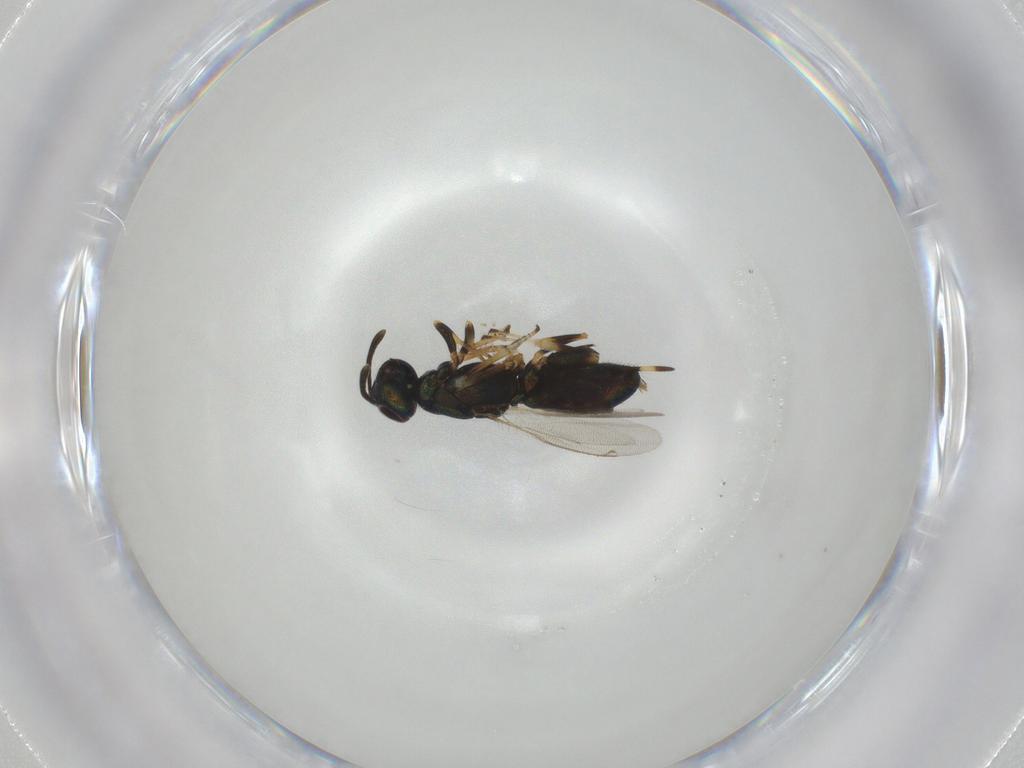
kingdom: Animalia
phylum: Arthropoda
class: Insecta
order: Hymenoptera
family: Eupelmidae
